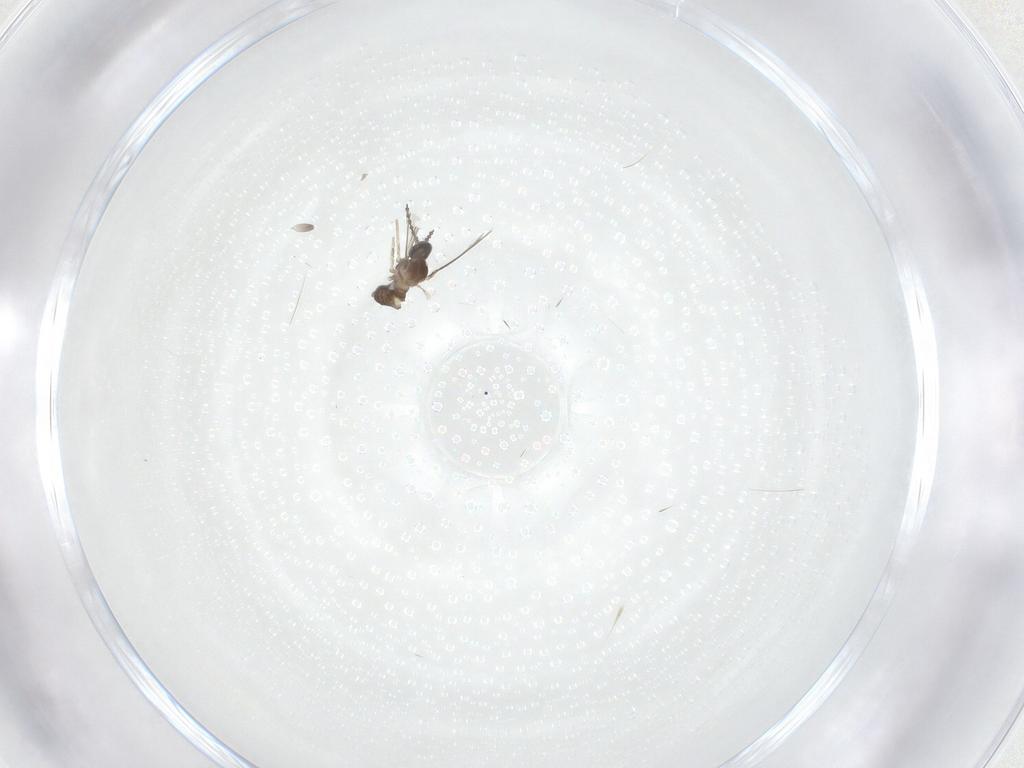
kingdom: Animalia
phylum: Arthropoda
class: Insecta
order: Diptera
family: Cecidomyiidae
